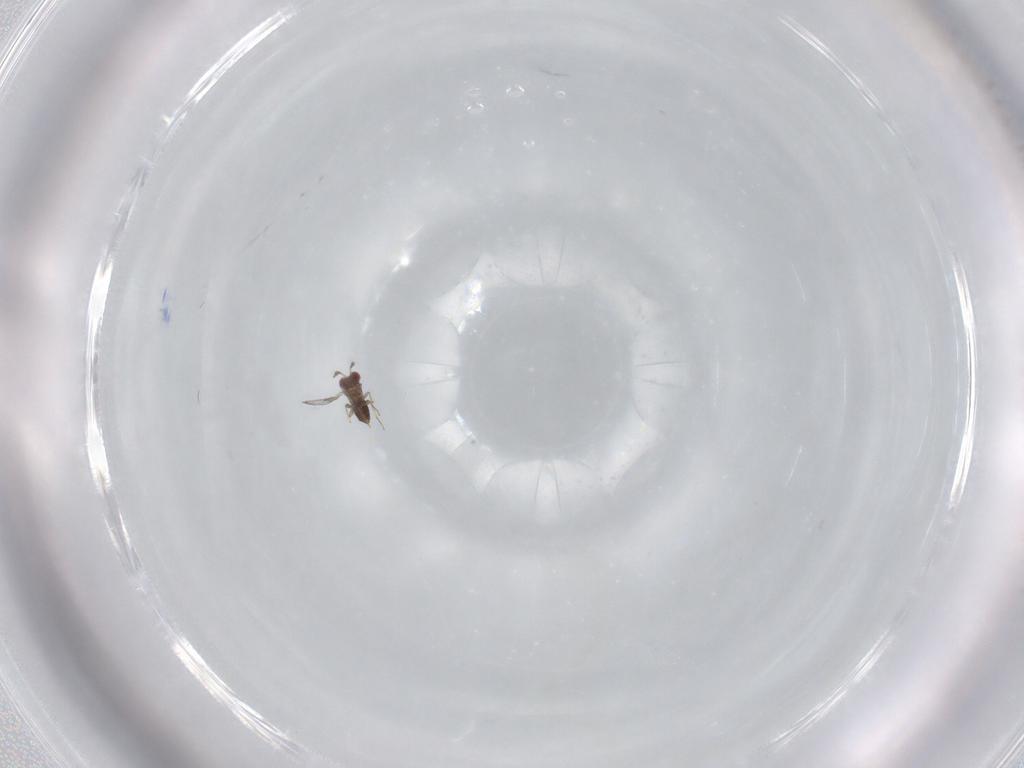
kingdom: Animalia
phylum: Arthropoda
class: Insecta
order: Hymenoptera
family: Trichogrammatidae
